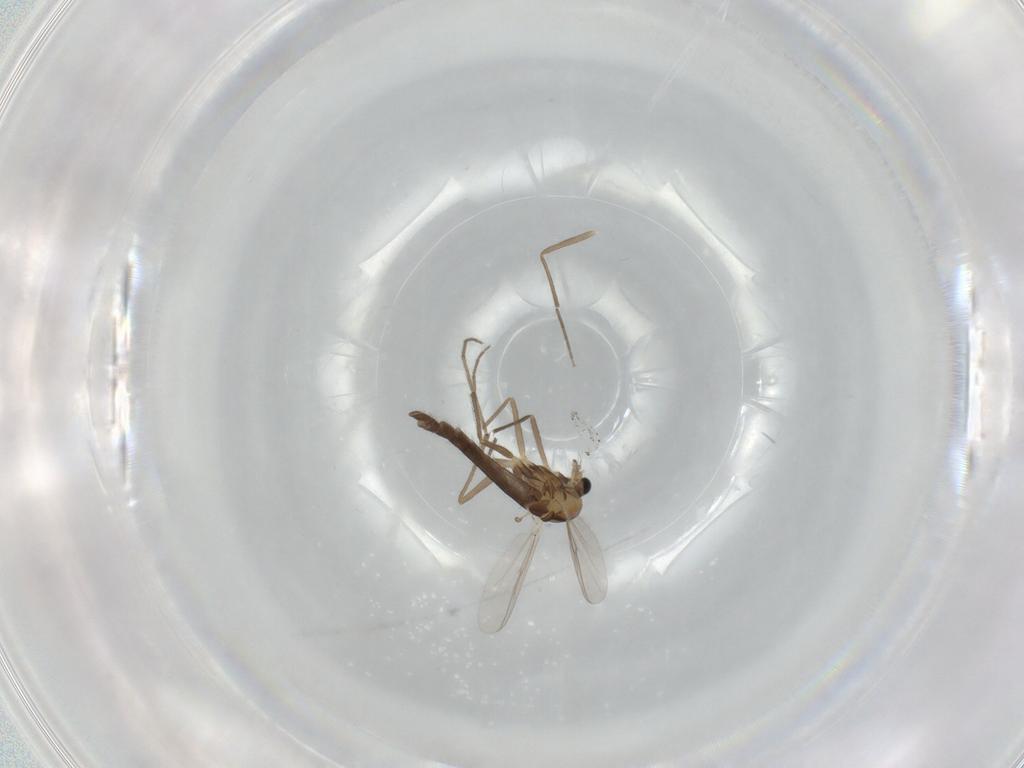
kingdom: Animalia
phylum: Arthropoda
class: Insecta
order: Diptera
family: Chironomidae
